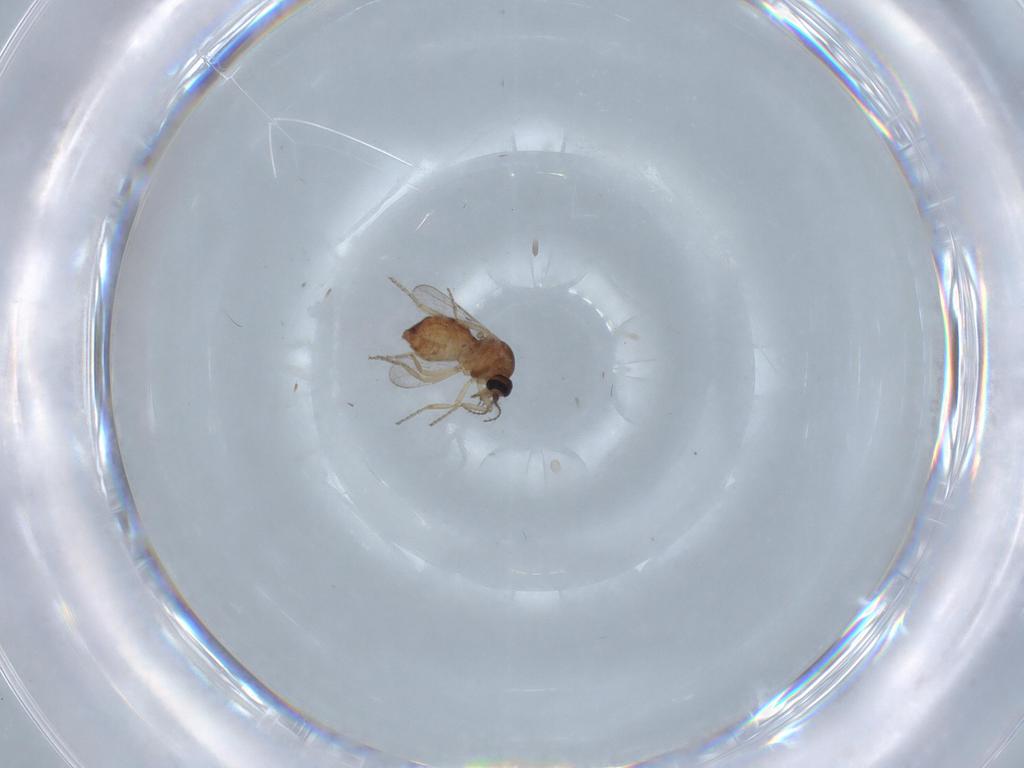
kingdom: Animalia
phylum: Arthropoda
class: Insecta
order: Diptera
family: Ceratopogonidae
